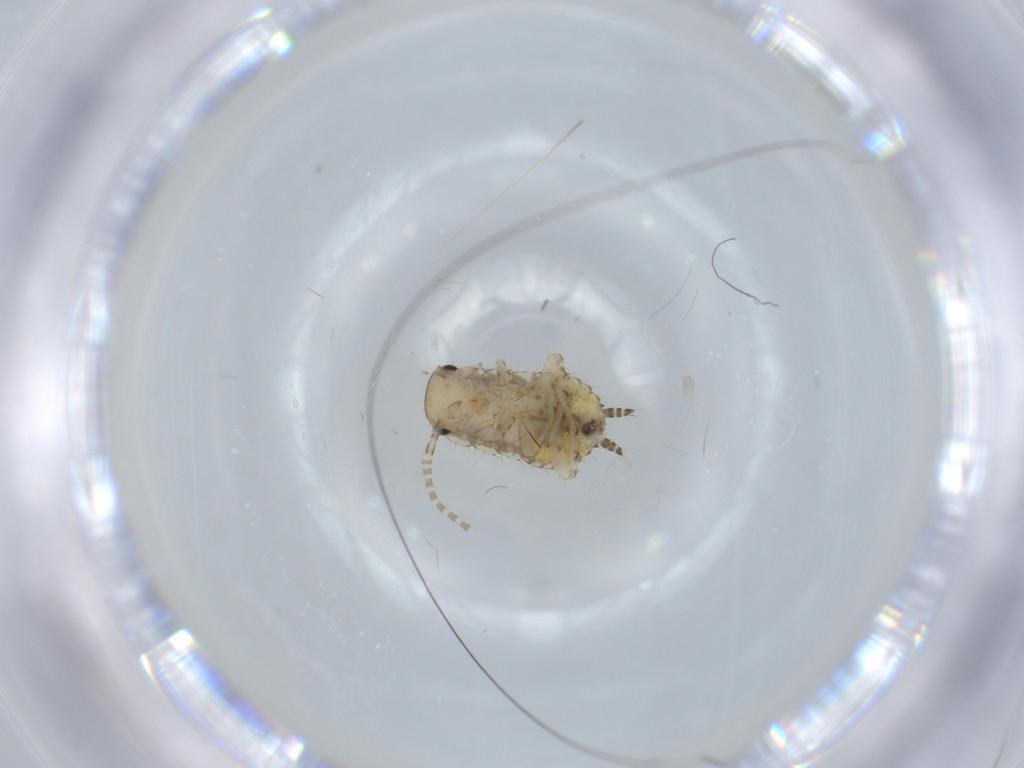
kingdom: Animalia
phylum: Arthropoda
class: Insecta
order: Blattodea
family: Ectobiidae
